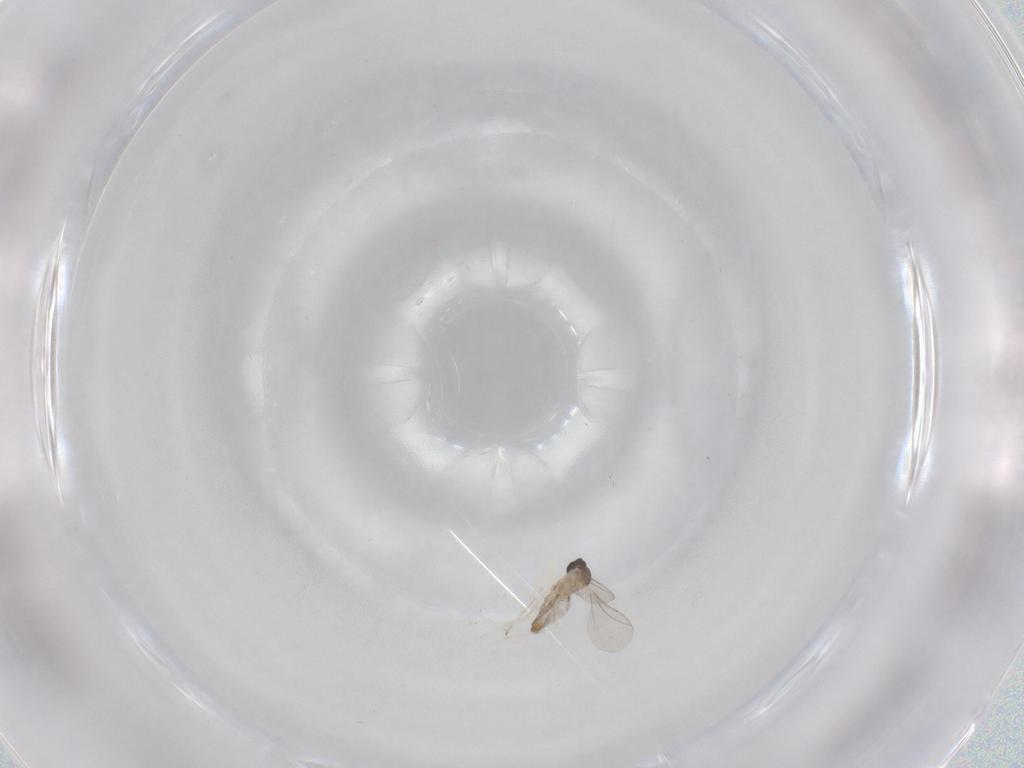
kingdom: Animalia
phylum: Arthropoda
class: Insecta
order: Diptera
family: Cecidomyiidae
